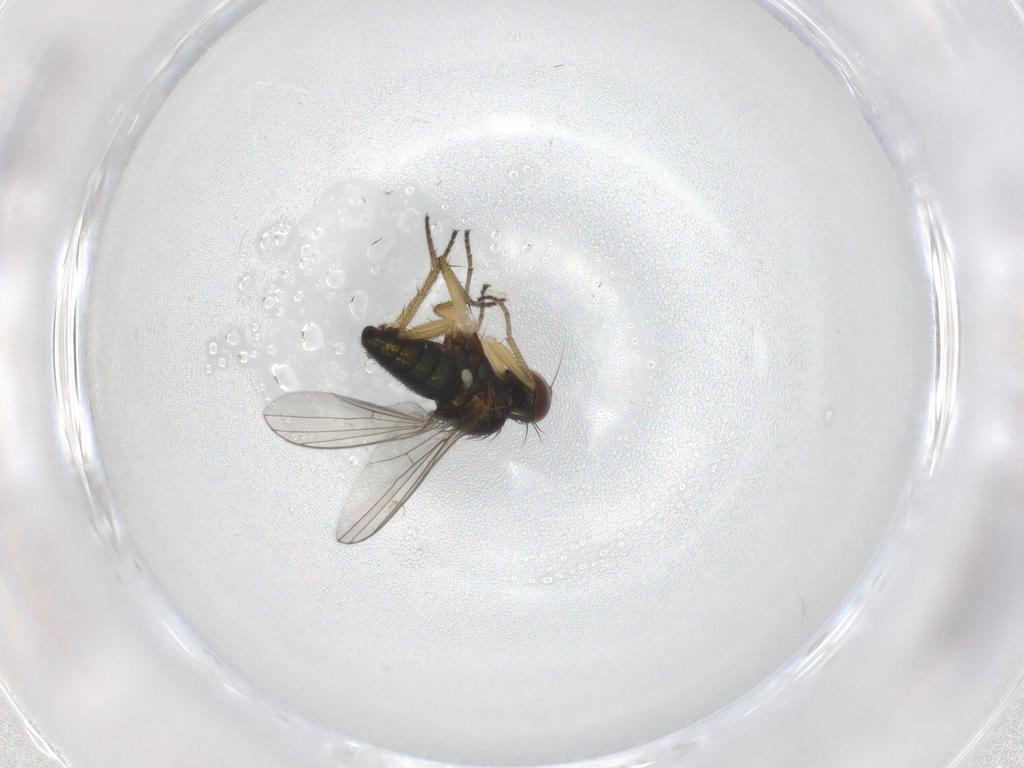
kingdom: Animalia
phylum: Arthropoda
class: Insecta
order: Diptera
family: Dolichopodidae
